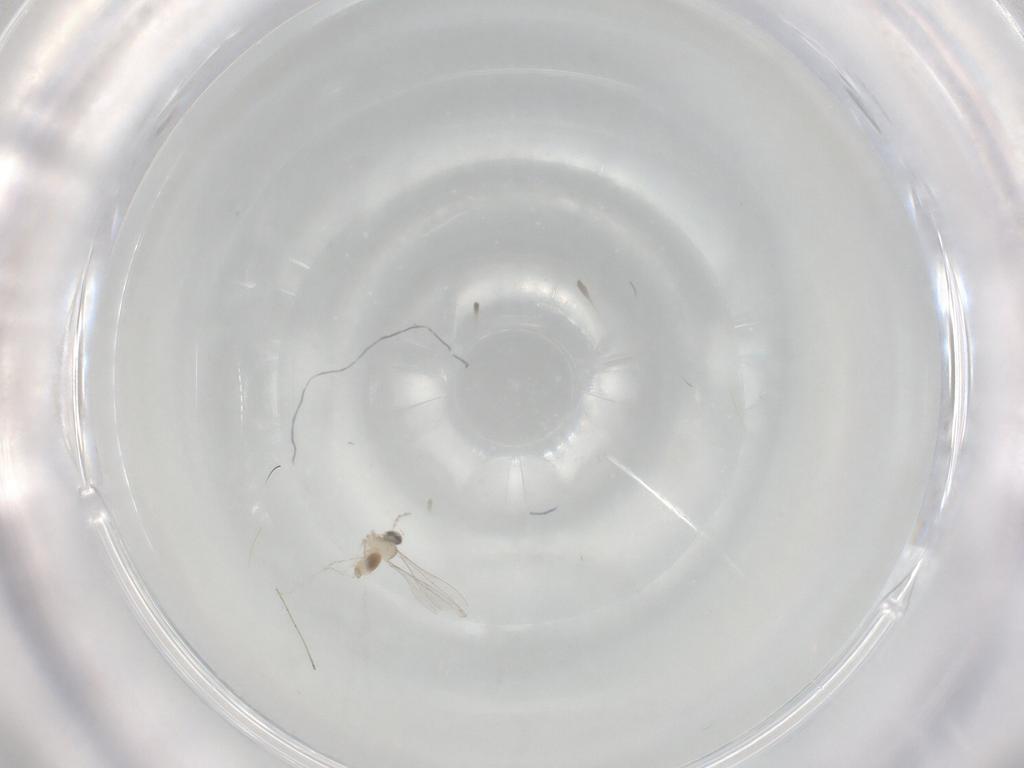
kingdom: Animalia
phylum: Arthropoda
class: Insecta
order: Diptera
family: Cecidomyiidae
